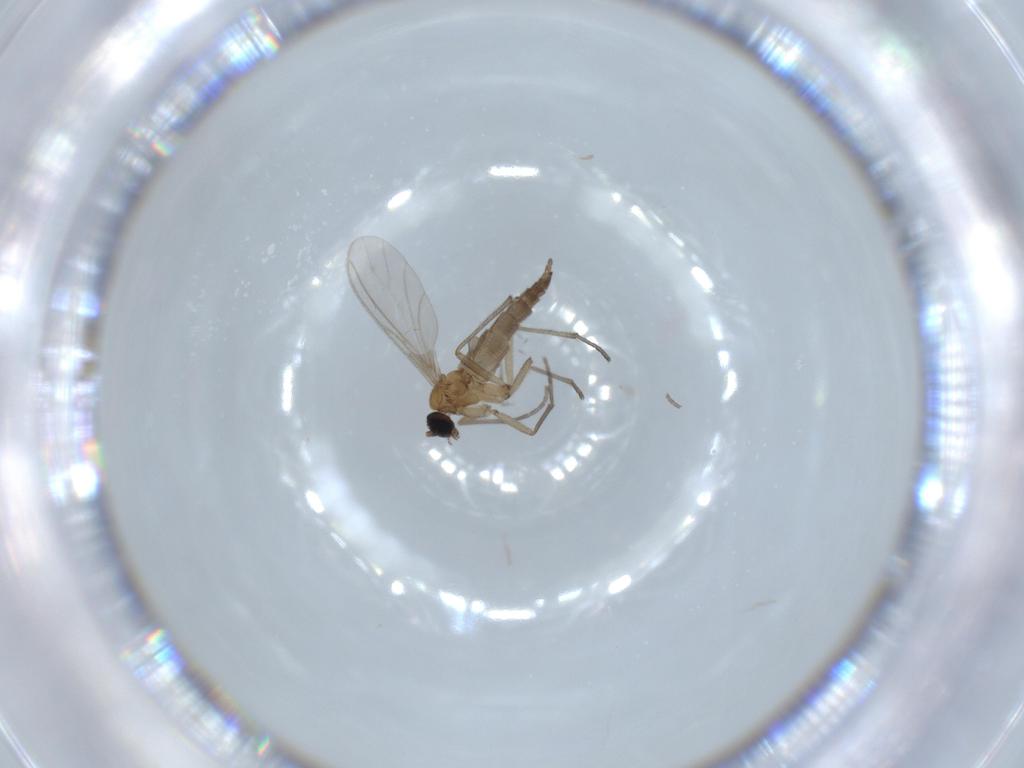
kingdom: Animalia
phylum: Arthropoda
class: Insecta
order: Diptera
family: Sciaridae
